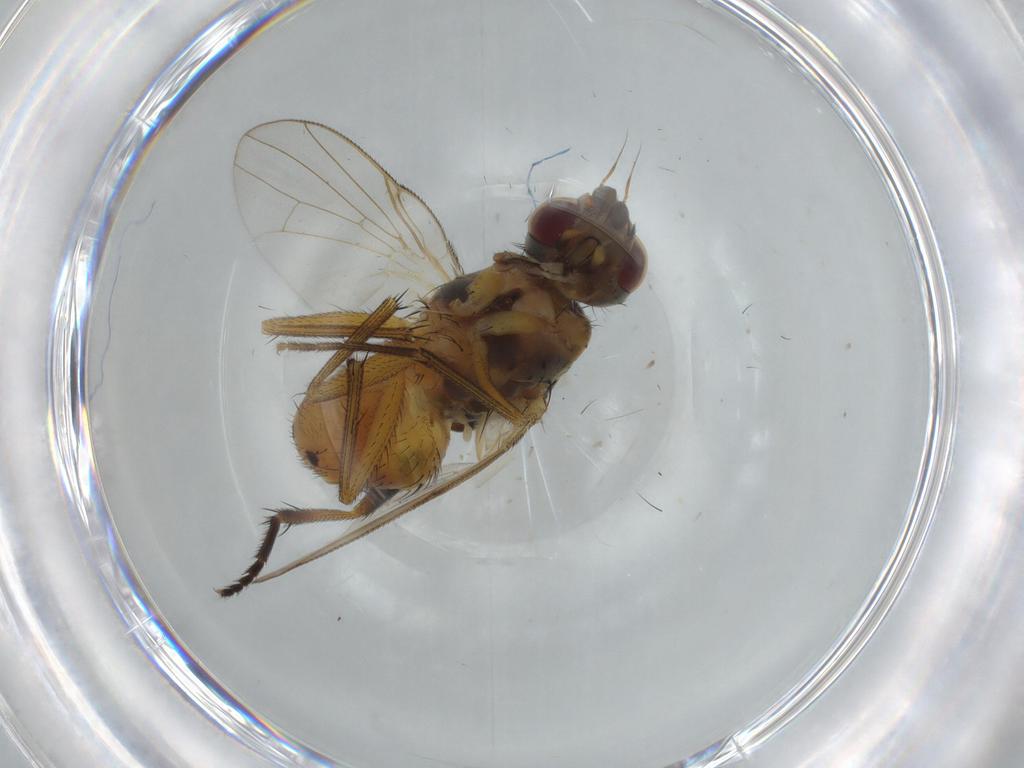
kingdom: Animalia
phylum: Arthropoda
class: Insecta
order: Diptera
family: Muscidae
